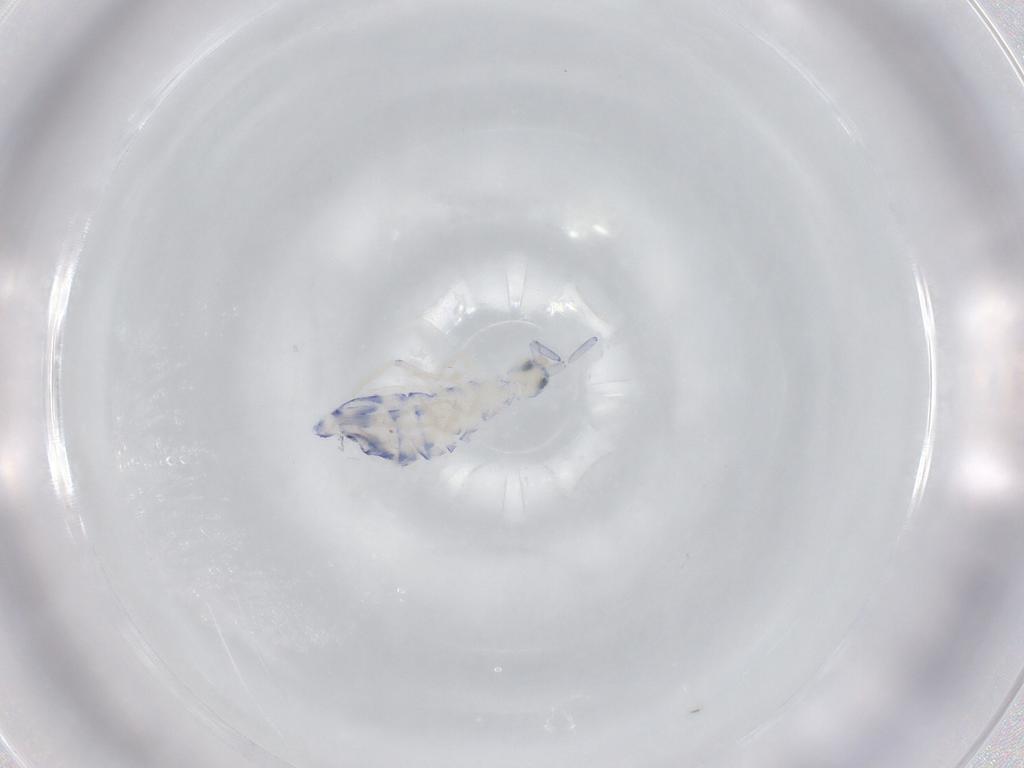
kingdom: Animalia
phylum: Arthropoda
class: Collembola
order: Entomobryomorpha
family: Entomobryidae
